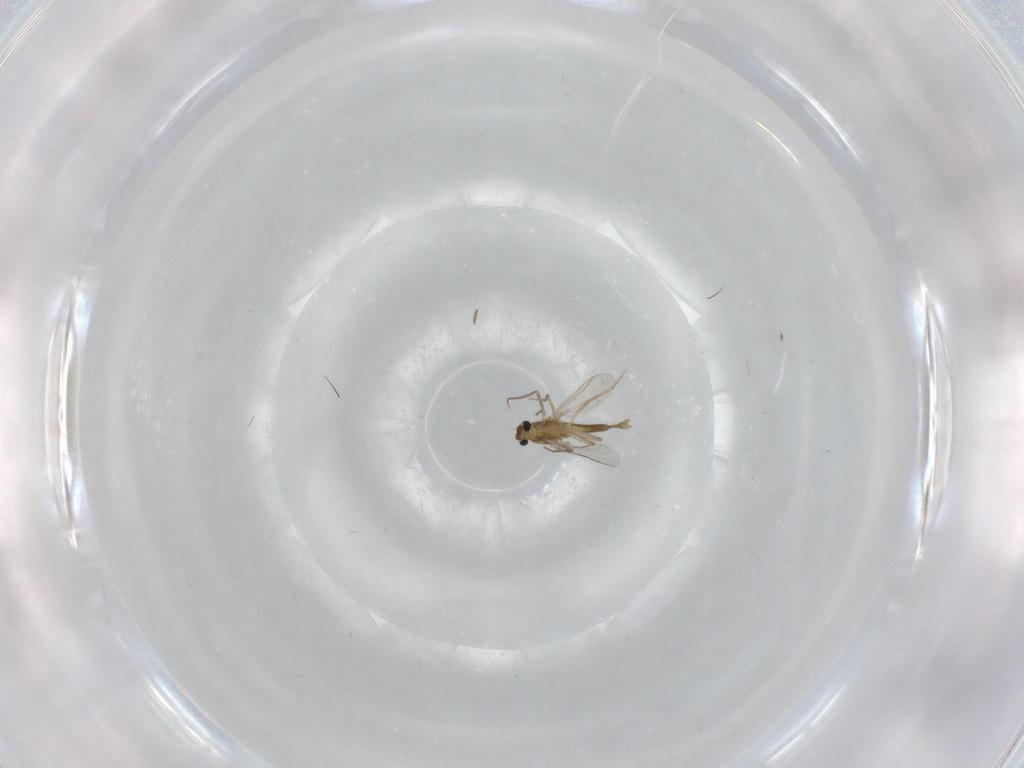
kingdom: Animalia
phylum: Arthropoda
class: Insecta
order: Diptera
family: Chironomidae
